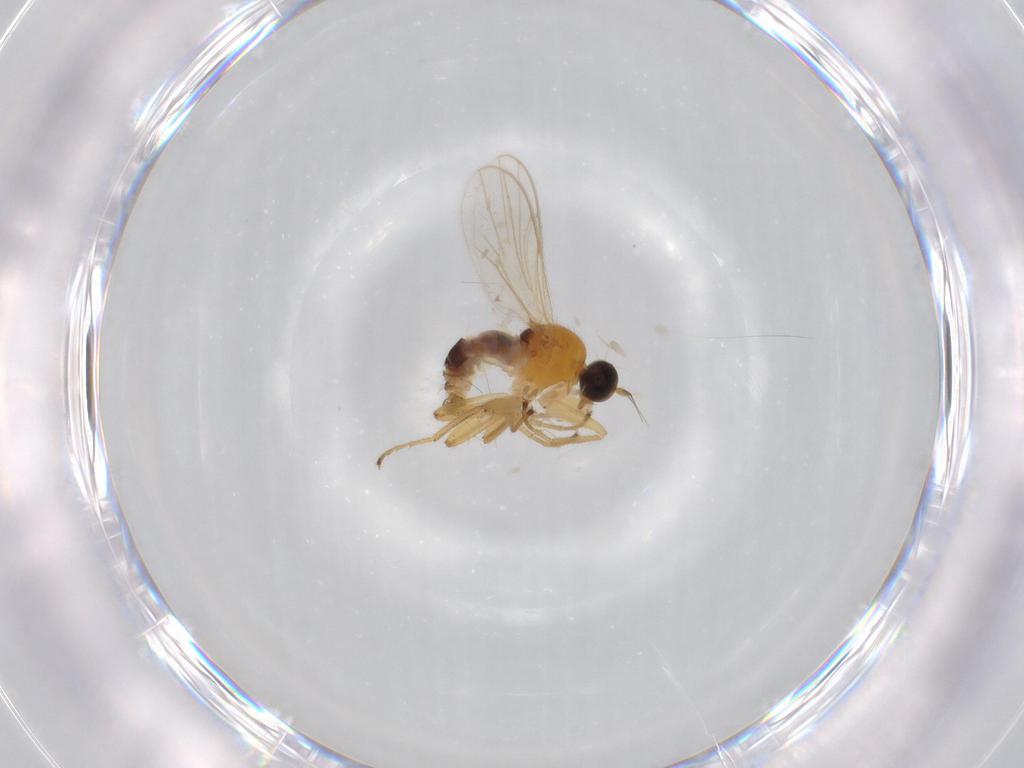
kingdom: Animalia
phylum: Arthropoda
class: Insecta
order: Diptera
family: Hybotidae
